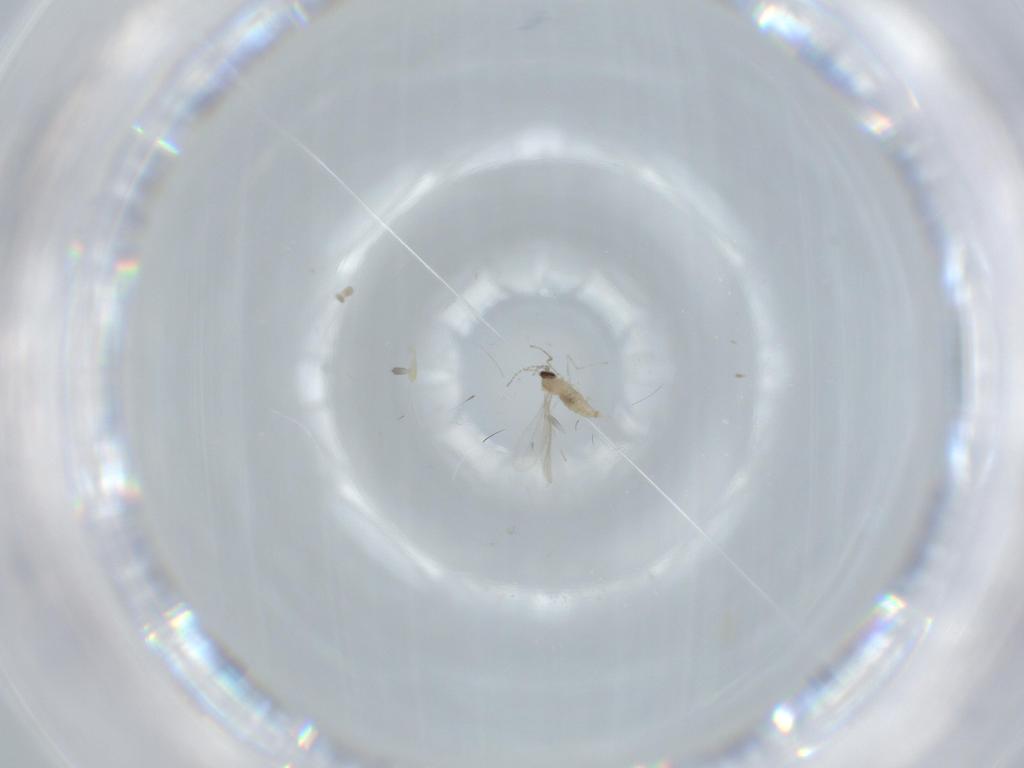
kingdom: Animalia
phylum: Arthropoda
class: Insecta
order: Diptera
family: Cecidomyiidae
